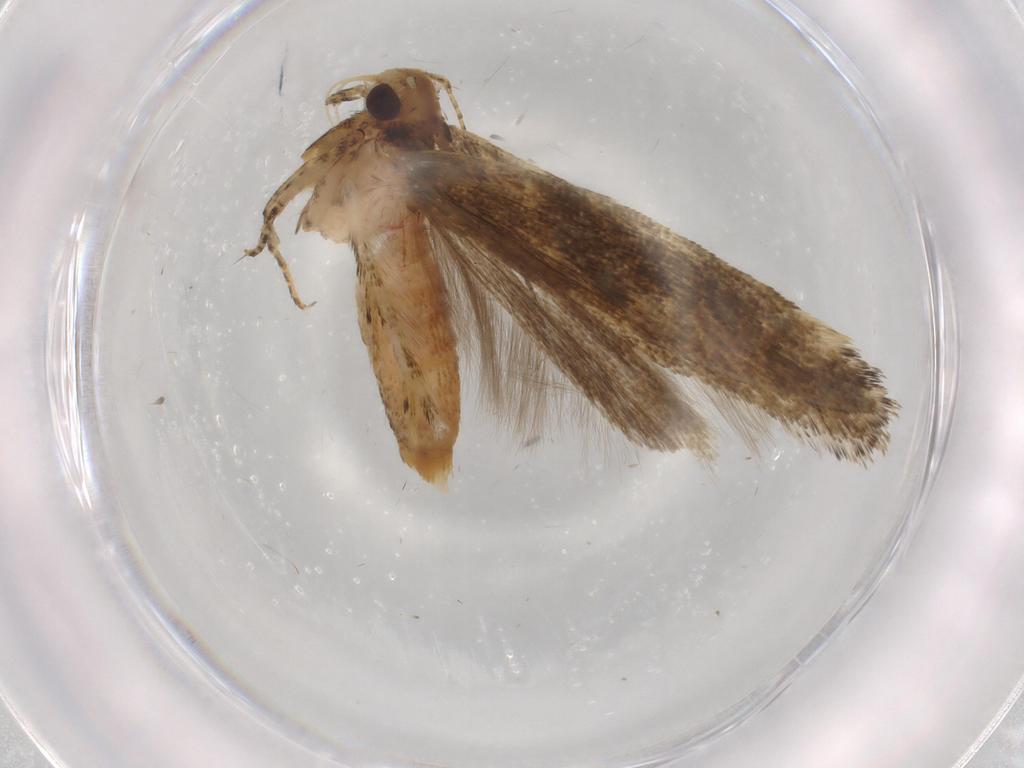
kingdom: Animalia
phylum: Arthropoda
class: Insecta
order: Lepidoptera
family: Gelechiidae
